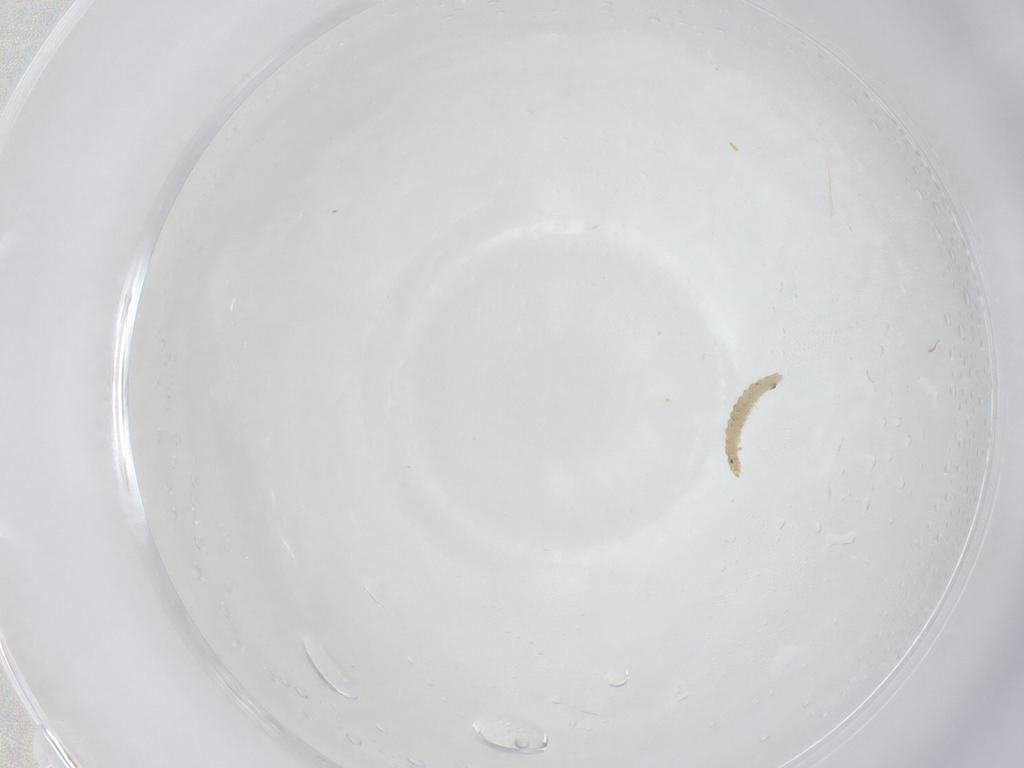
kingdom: Animalia
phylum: Arthropoda
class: Insecta
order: Diptera
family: Stratiomyidae
